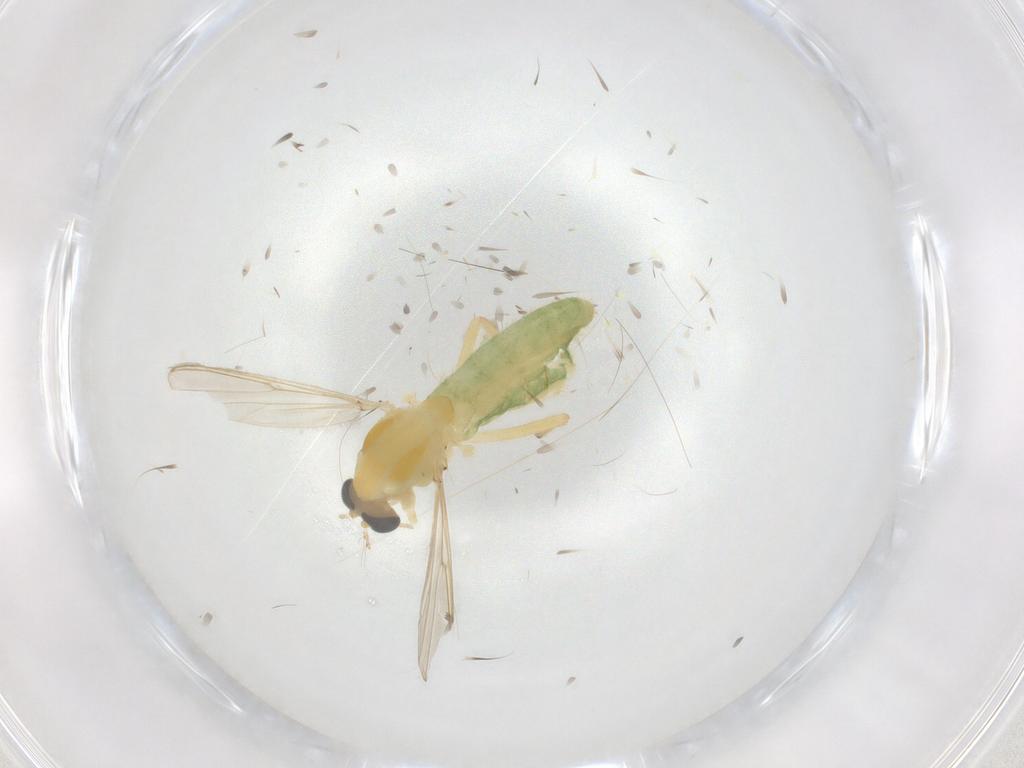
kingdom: Animalia
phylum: Arthropoda
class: Insecta
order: Diptera
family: Chironomidae
